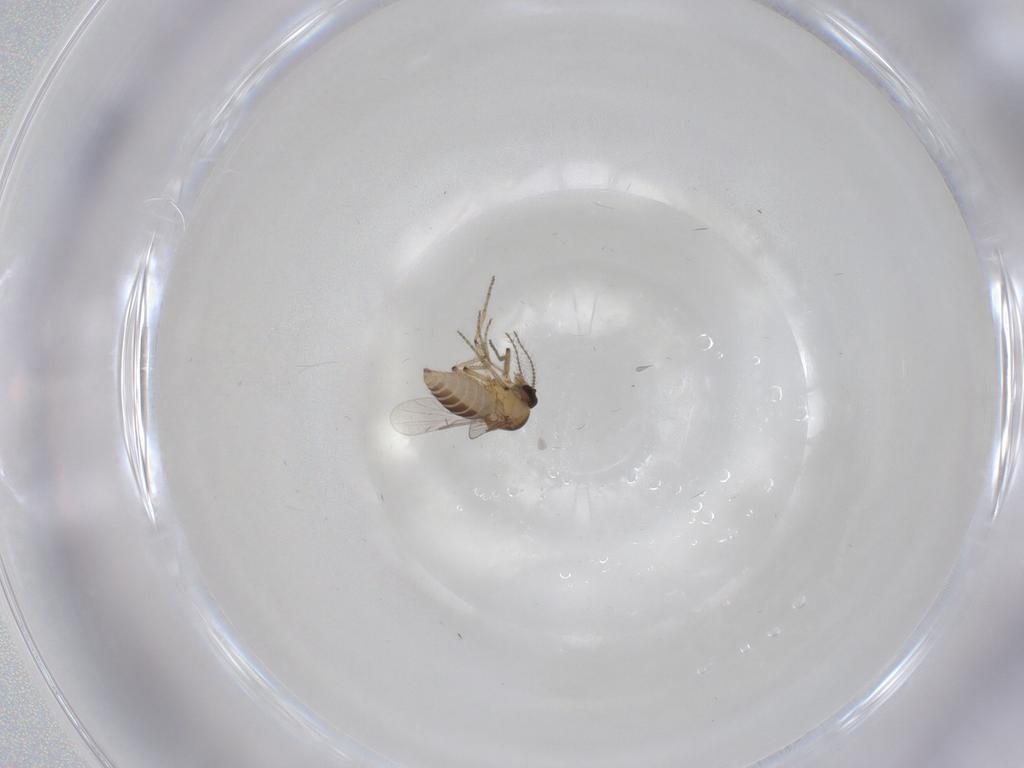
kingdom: Animalia
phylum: Arthropoda
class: Insecta
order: Diptera
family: Ceratopogonidae
